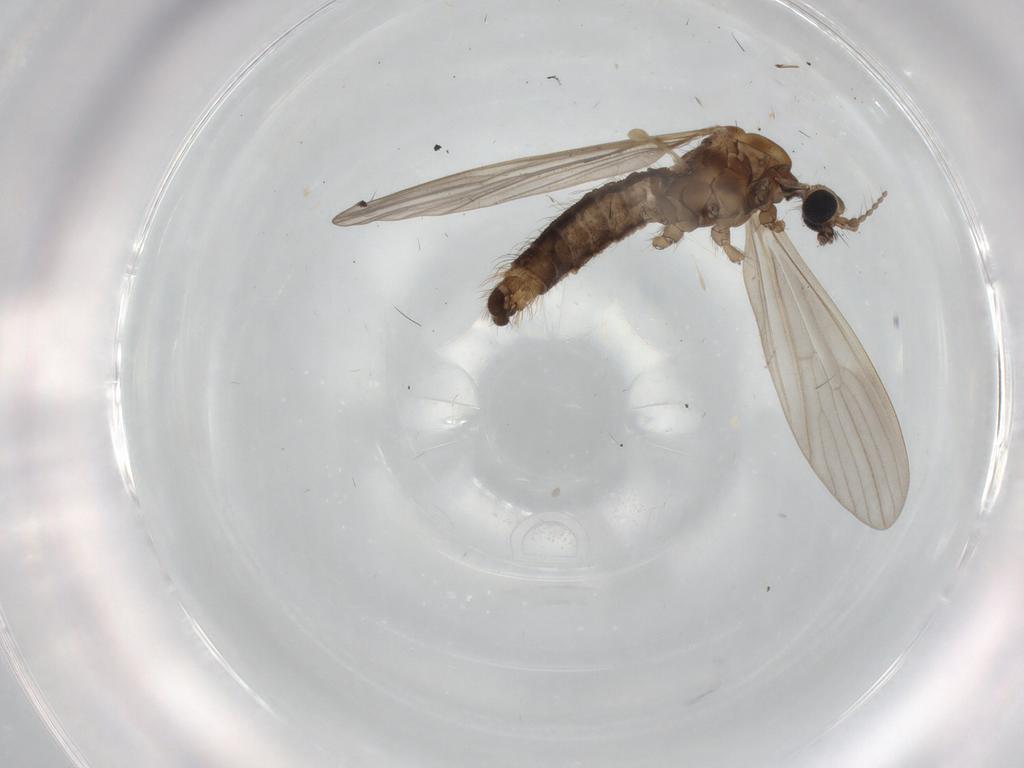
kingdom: Animalia
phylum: Arthropoda
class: Insecta
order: Diptera
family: Limoniidae
